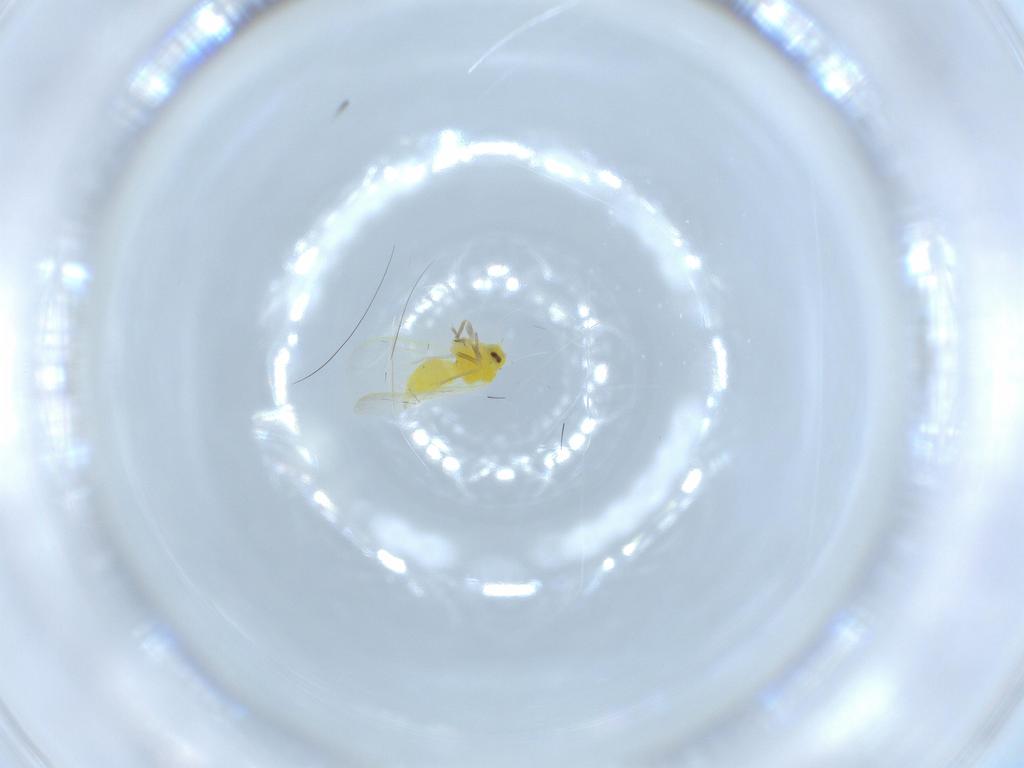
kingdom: Animalia
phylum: Arthropoda
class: Insecta
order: Hemiptera
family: Aleyrodidae
